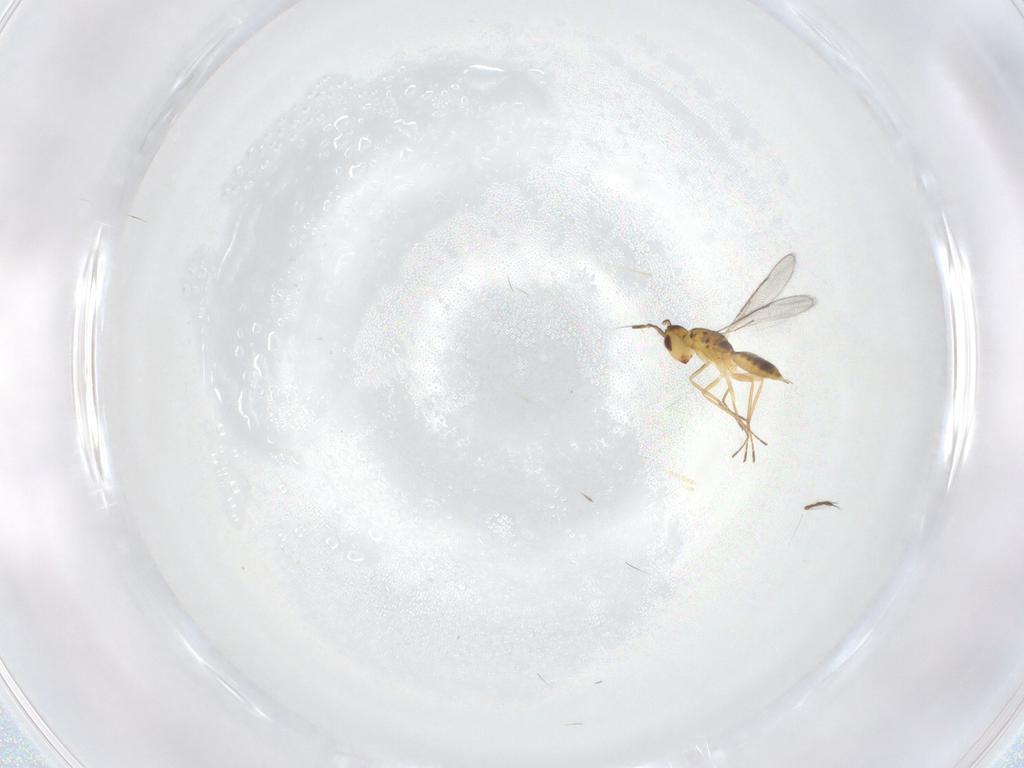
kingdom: Animalia
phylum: Arthropoda
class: Insecta
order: Hymenoptera
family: Eulophidae
